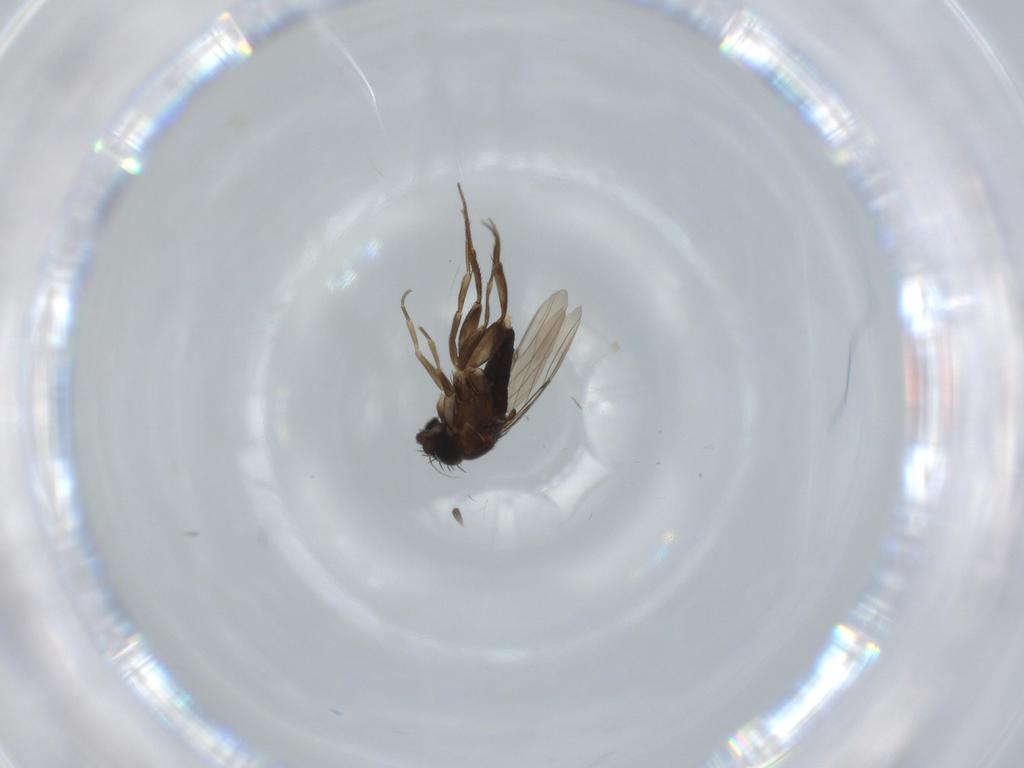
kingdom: Animalia
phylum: Arthropoda
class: Insecta
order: Diptera
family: Phoridae
